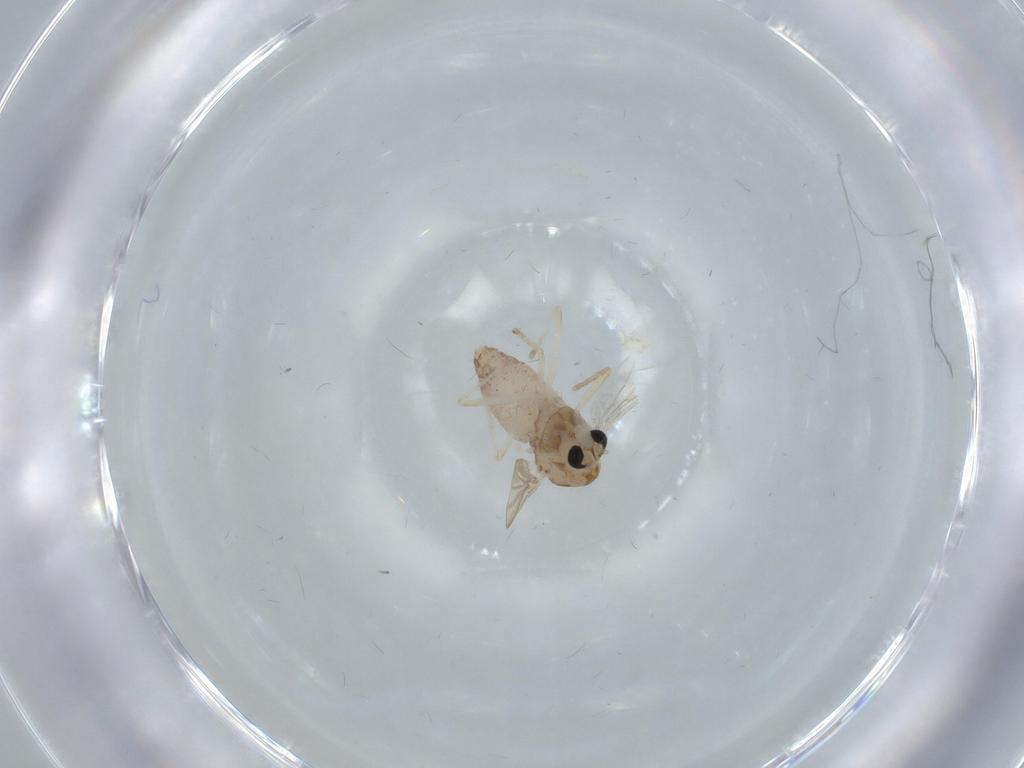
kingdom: Animalia
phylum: Arthropoda
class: Insecta
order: Diptera
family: Chironomidae
